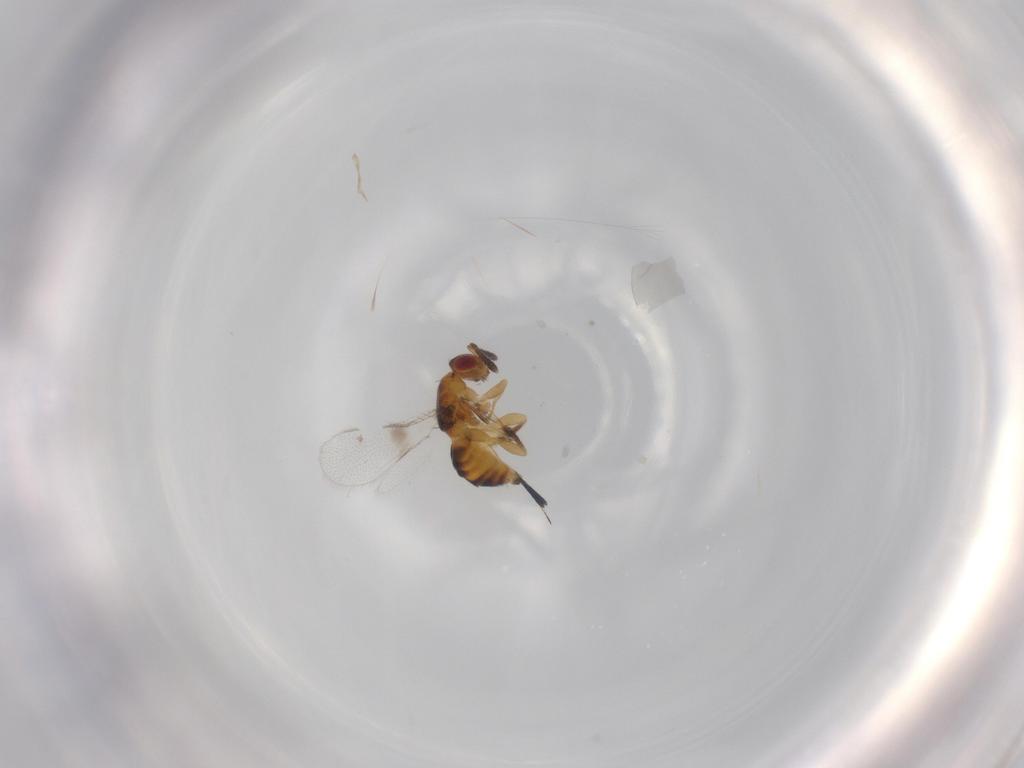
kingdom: Animalia
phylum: Arthropoda
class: Insecta
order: Hymenoptera
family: Torymidae
